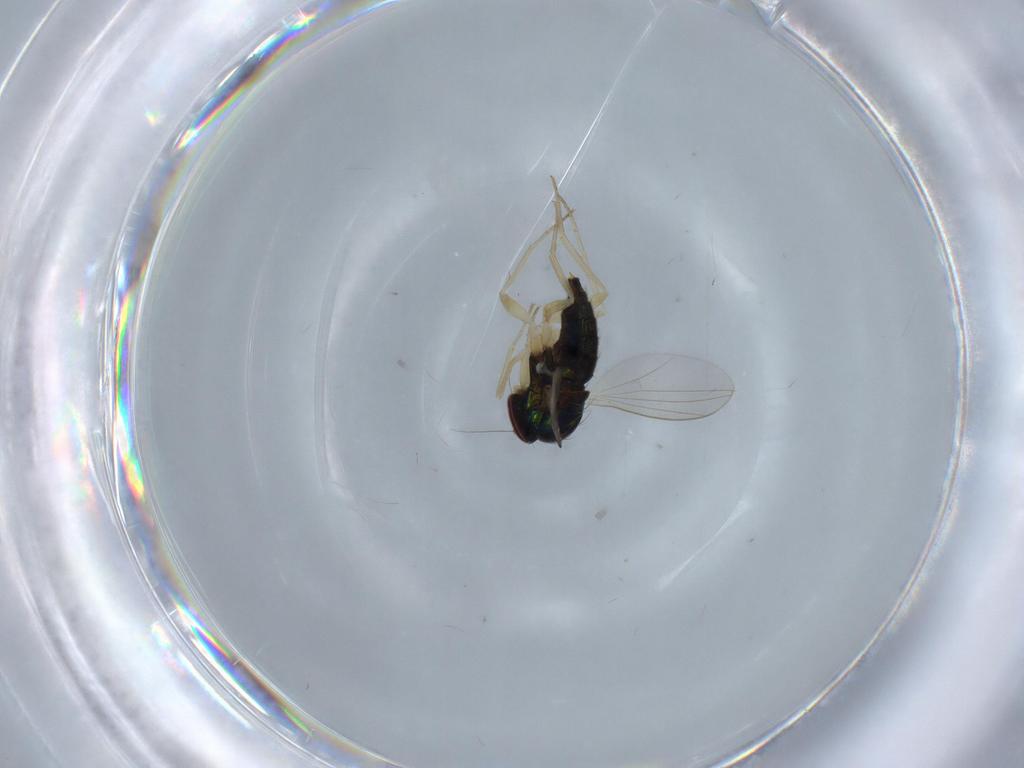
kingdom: Animalia
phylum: Arthropoda
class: Insecta
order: Diptera
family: Dolichopodidae
